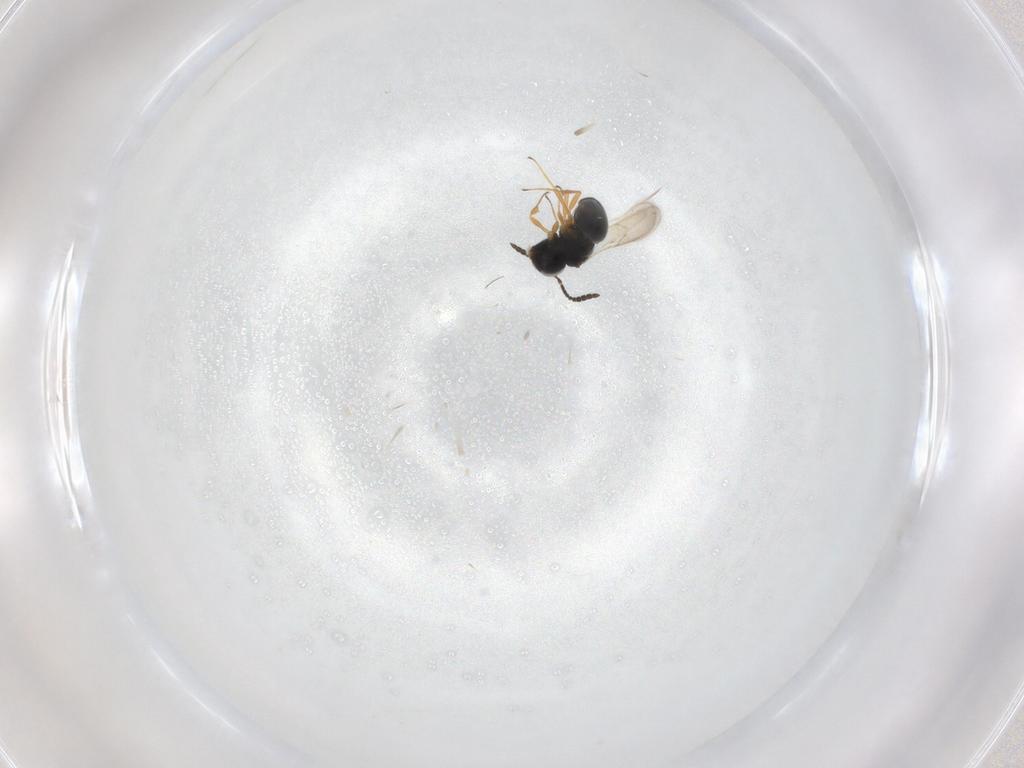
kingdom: Animalia
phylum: Arthropoda
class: Insecta
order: Hymenoptera
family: Scelionidae
